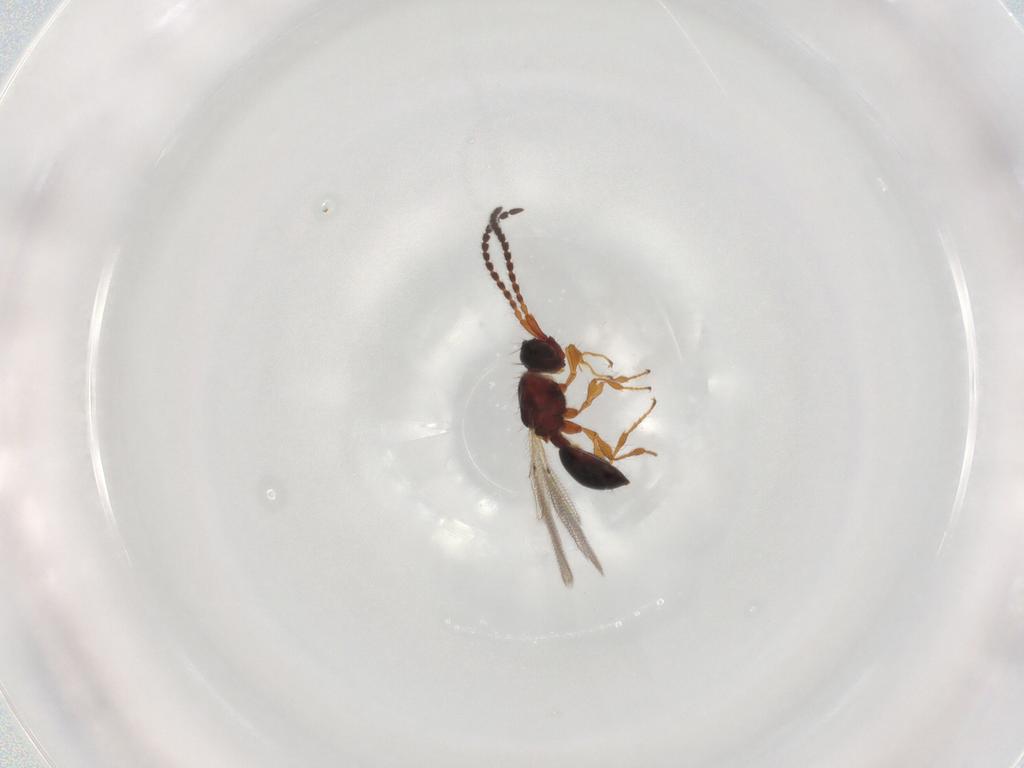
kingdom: Animalia
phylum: Arthropoda
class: Insecta
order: Hymenoptera
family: Diapriidae
